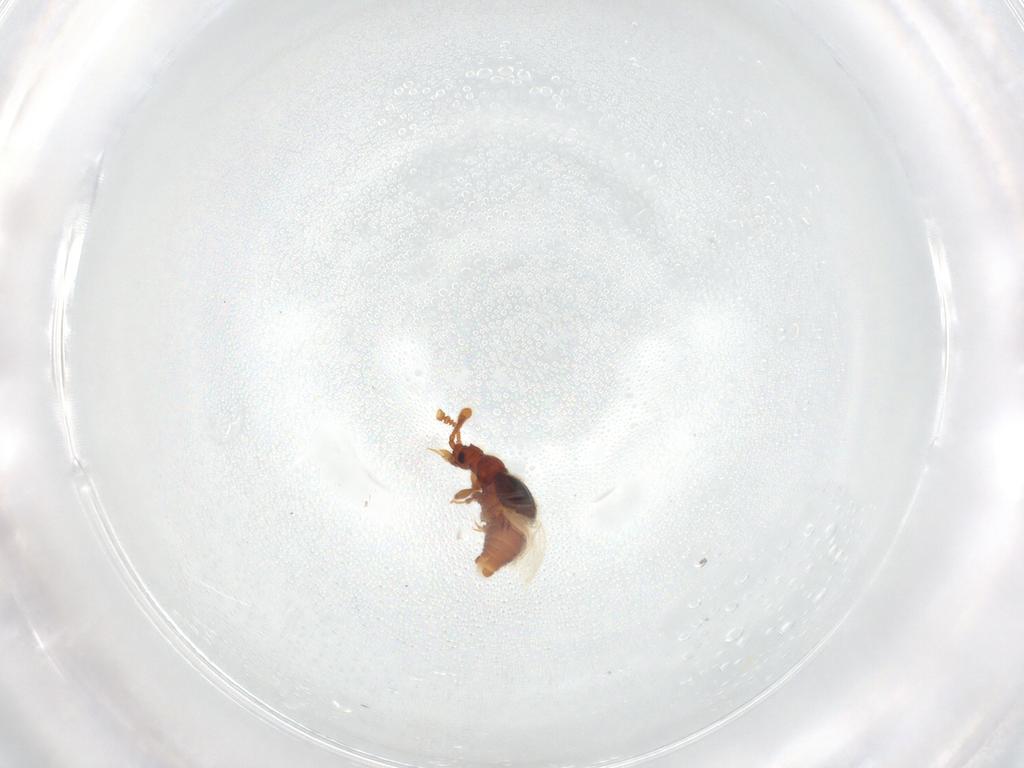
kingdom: Animalia
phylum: Arthropoda
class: Insecta
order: Coleoptera
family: Staphylinidae
